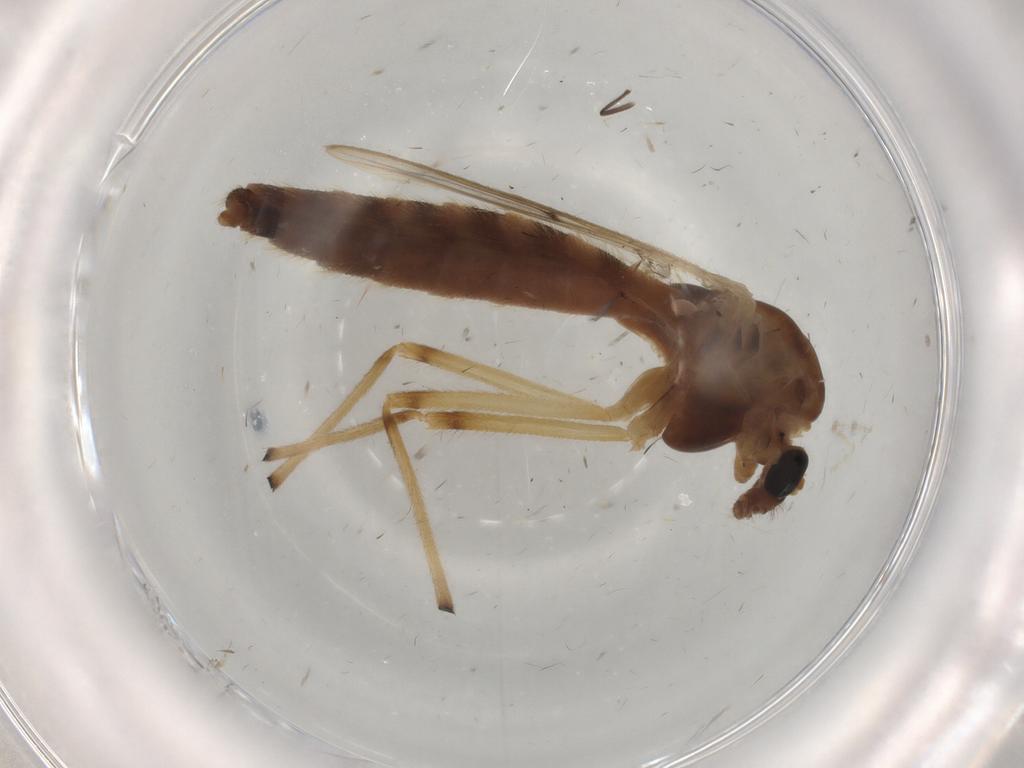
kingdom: Animalia
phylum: Arthropoda
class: Insecta
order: Diptera
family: Chironomidae
